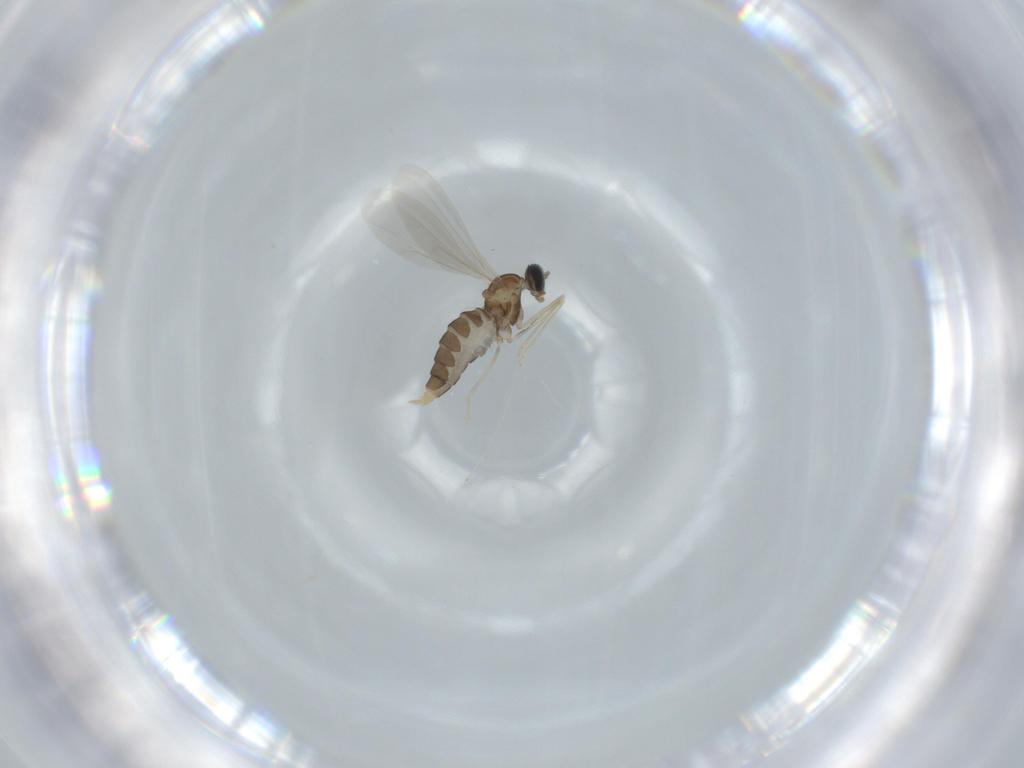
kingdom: Animalia
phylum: Arthropoda
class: Insecta
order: Diptera
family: Cecidomyiidae
